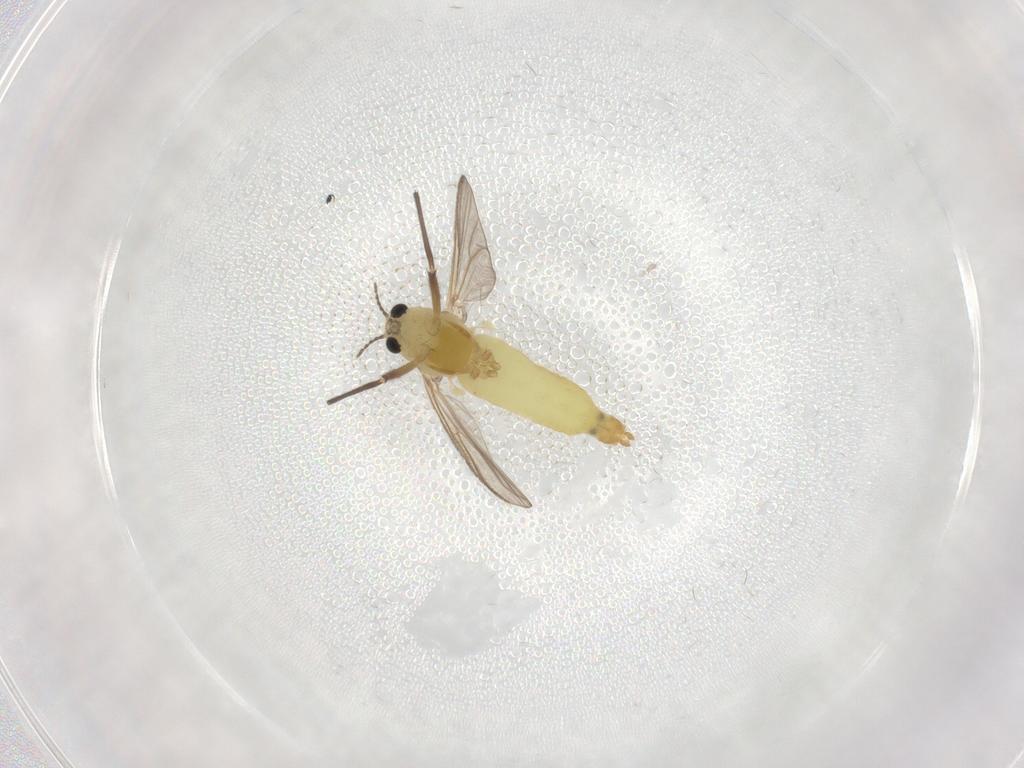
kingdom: Animalia
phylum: Arthropoda
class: Insecta
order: Diptera
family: Chironomidae
